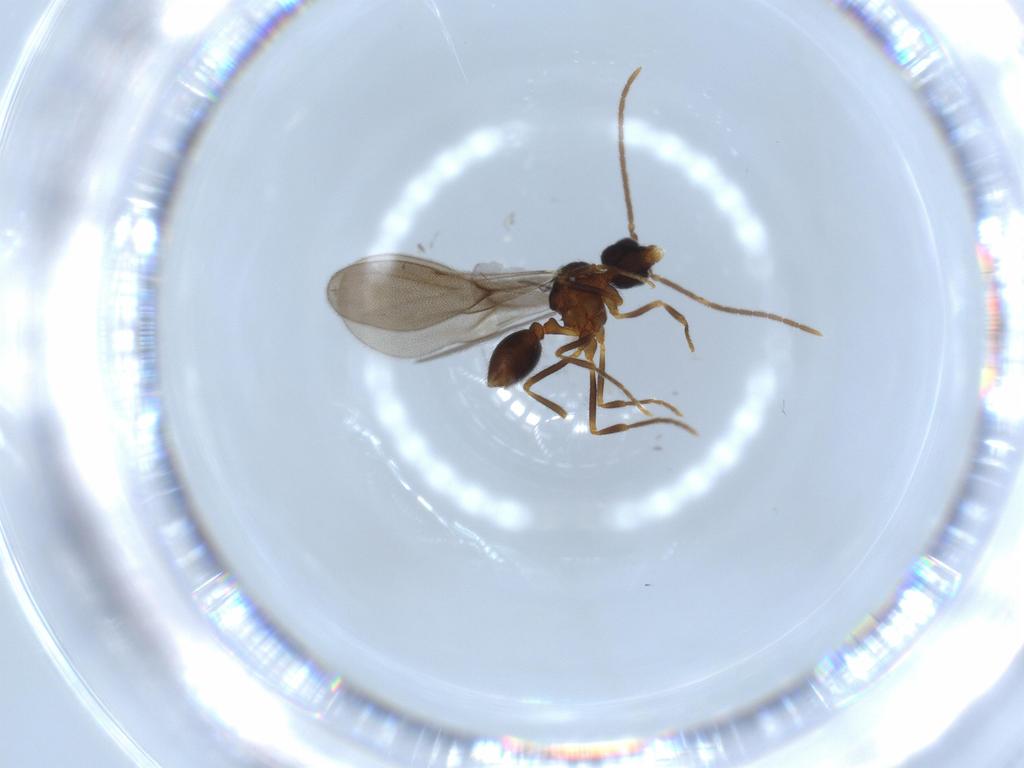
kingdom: Animalia
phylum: Arthropoda
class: Insecta
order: Hymenoptera
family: Formicidae
